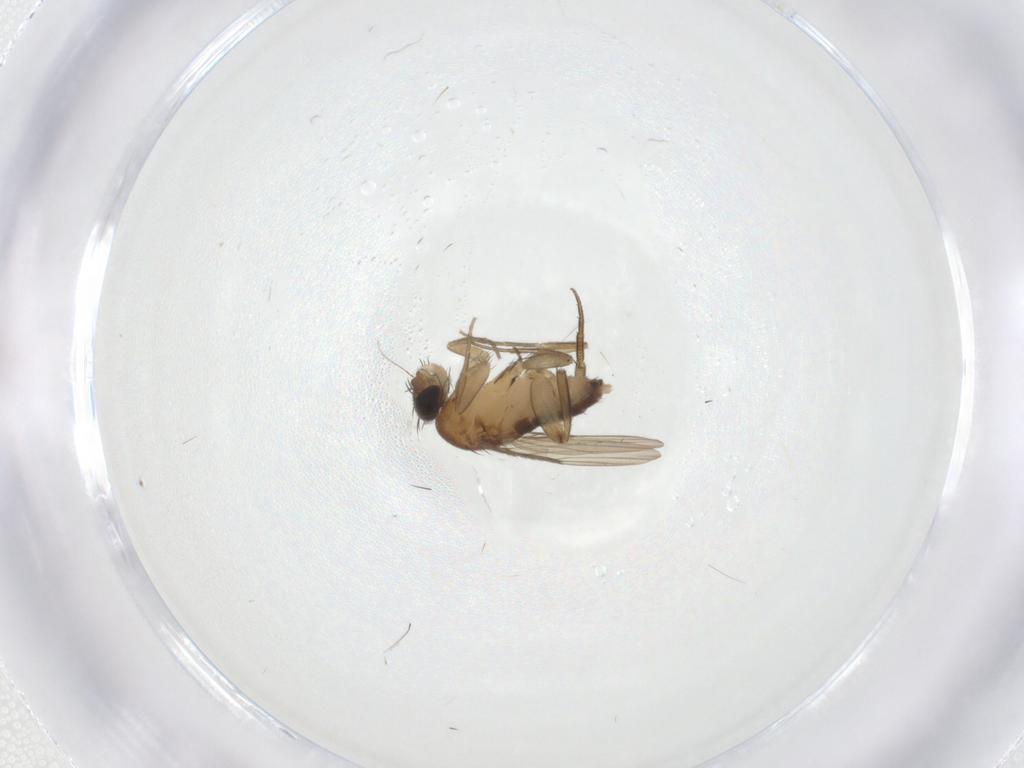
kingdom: Animalia
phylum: Arthropoda
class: Insecta
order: Diptera
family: Phoridae
